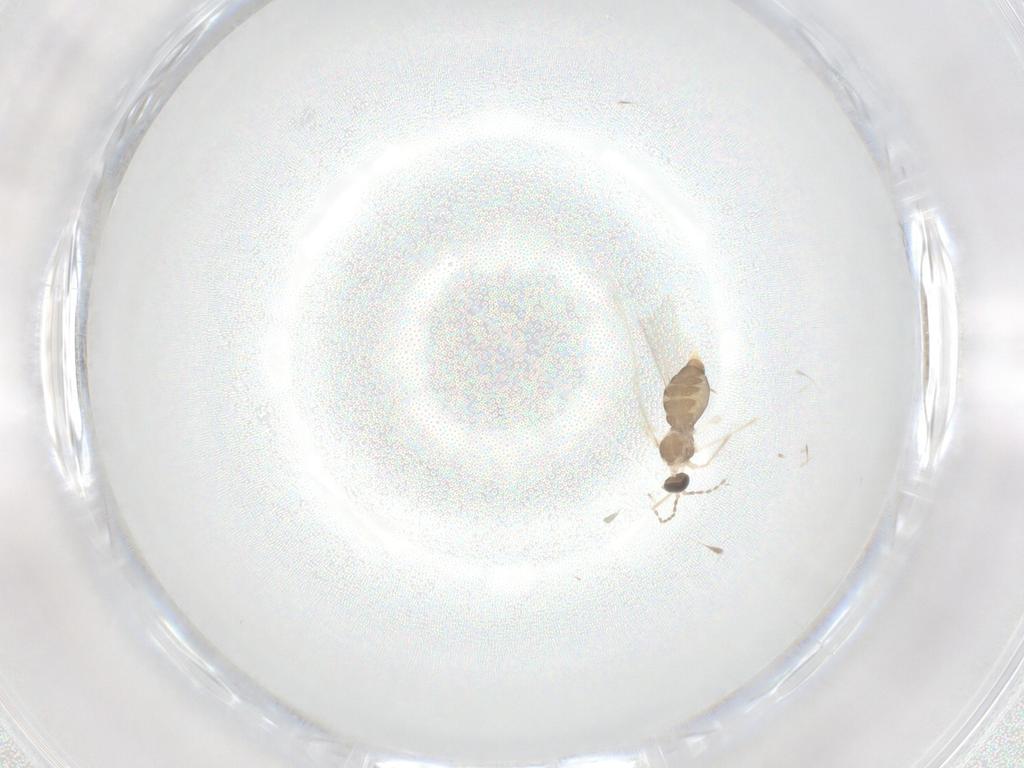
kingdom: Animalia
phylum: Arthropoda
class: Insecta
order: Diptera
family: Cecidomyiidae
